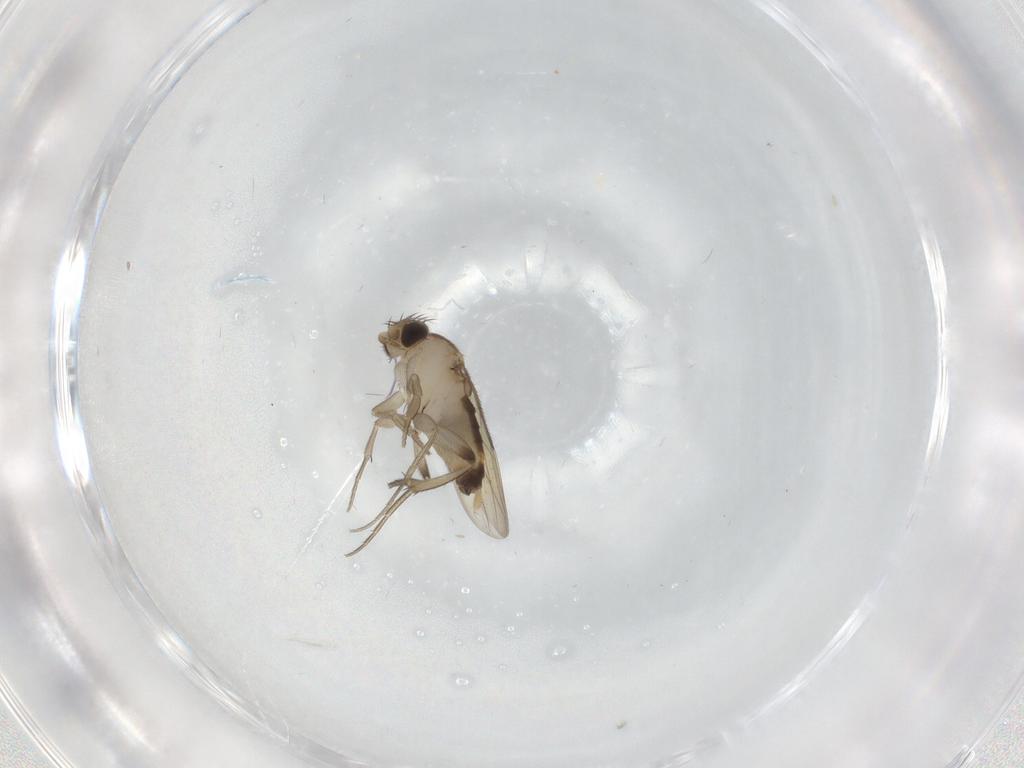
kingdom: Animalia
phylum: Arthropoda
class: Insecta
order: Diptera
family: Phoridae
